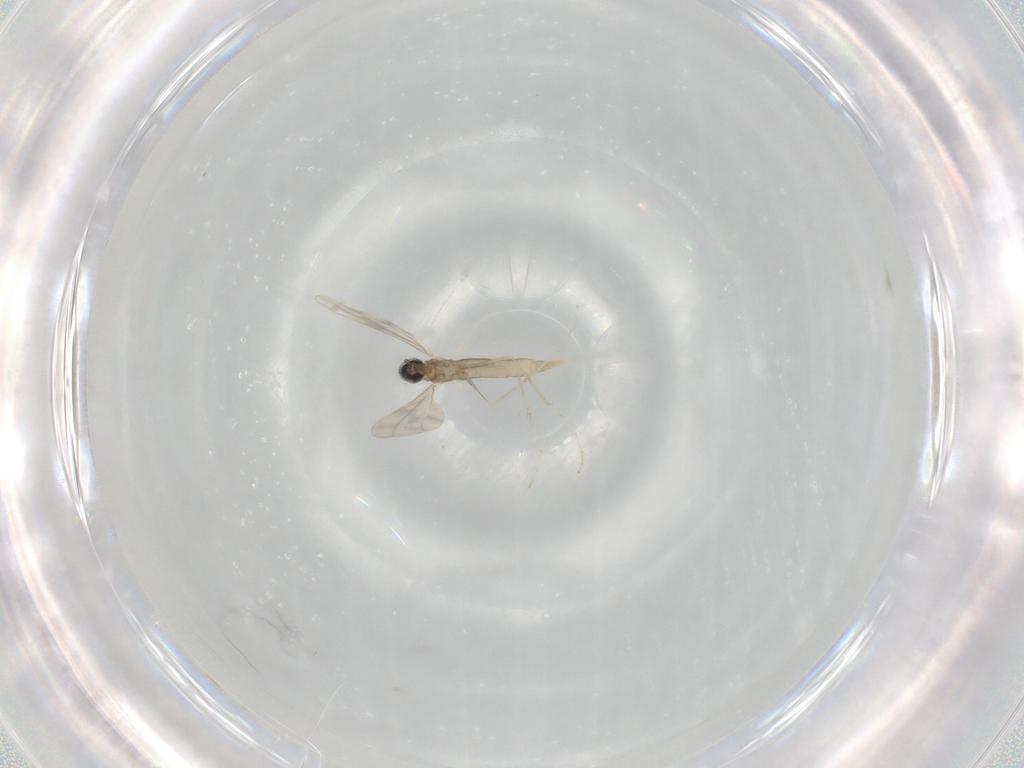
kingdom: Animalia
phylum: Arthropoda
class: Insecta
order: Diptera
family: Cecidomyiidae
